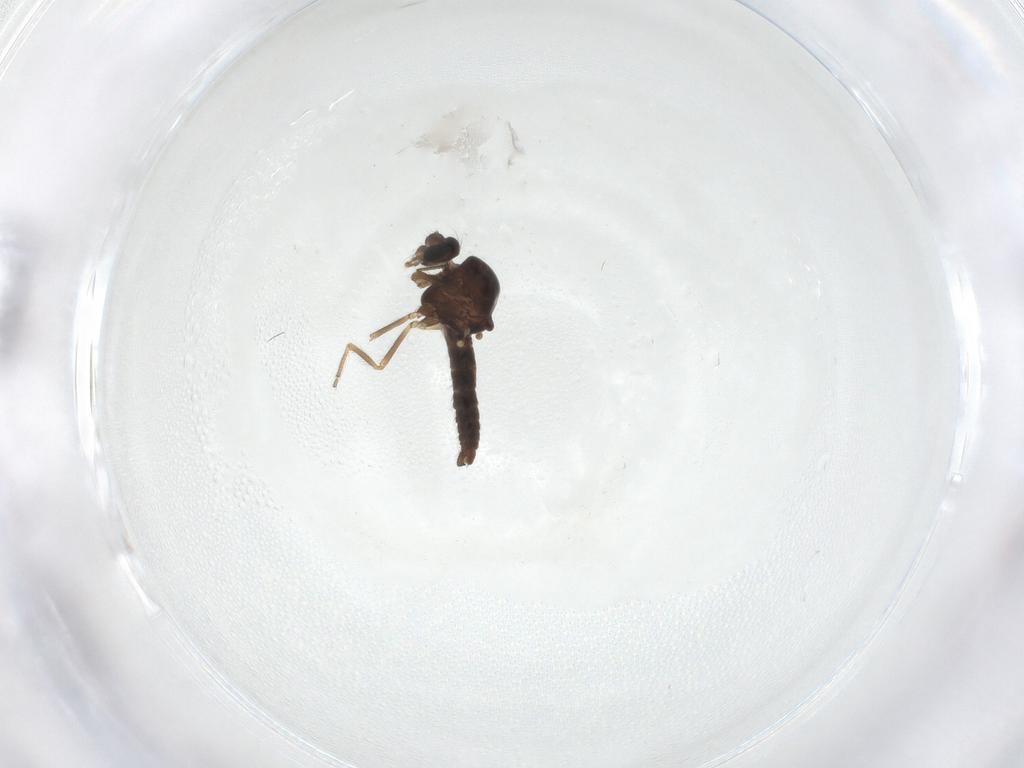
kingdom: Animalia
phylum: Arthropoda
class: Insecta
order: Diptera
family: Ceratopogonidae
